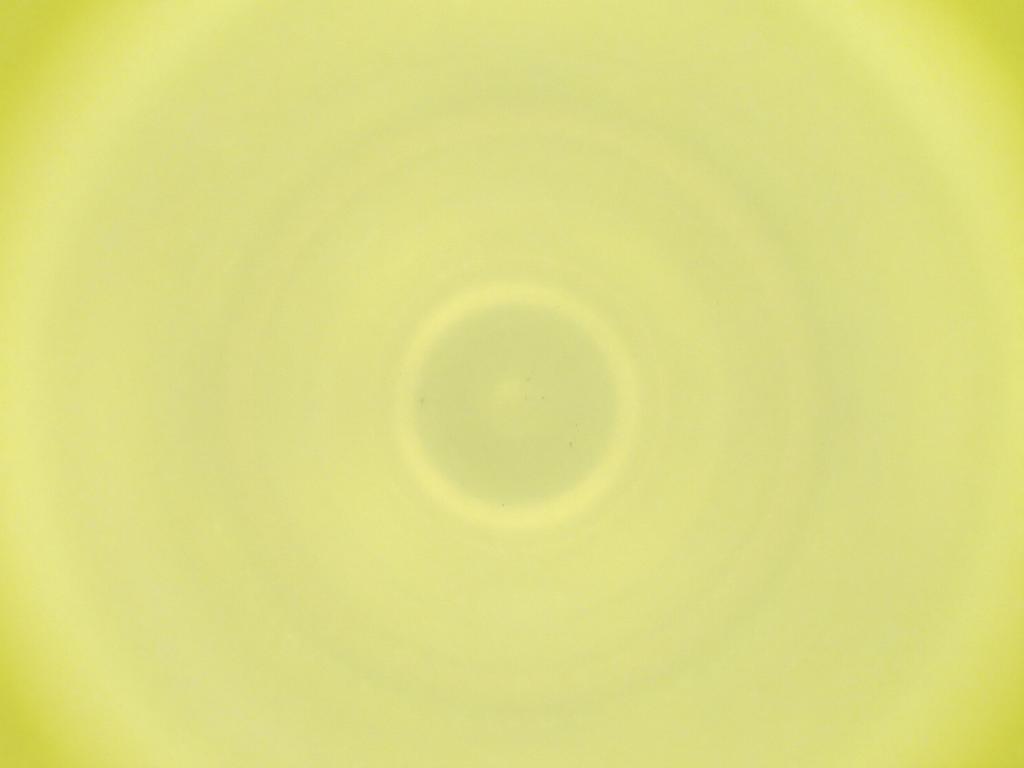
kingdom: Animalia
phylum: Arthropoda
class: Insecta
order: Diptera
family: Cecidomyiidae
